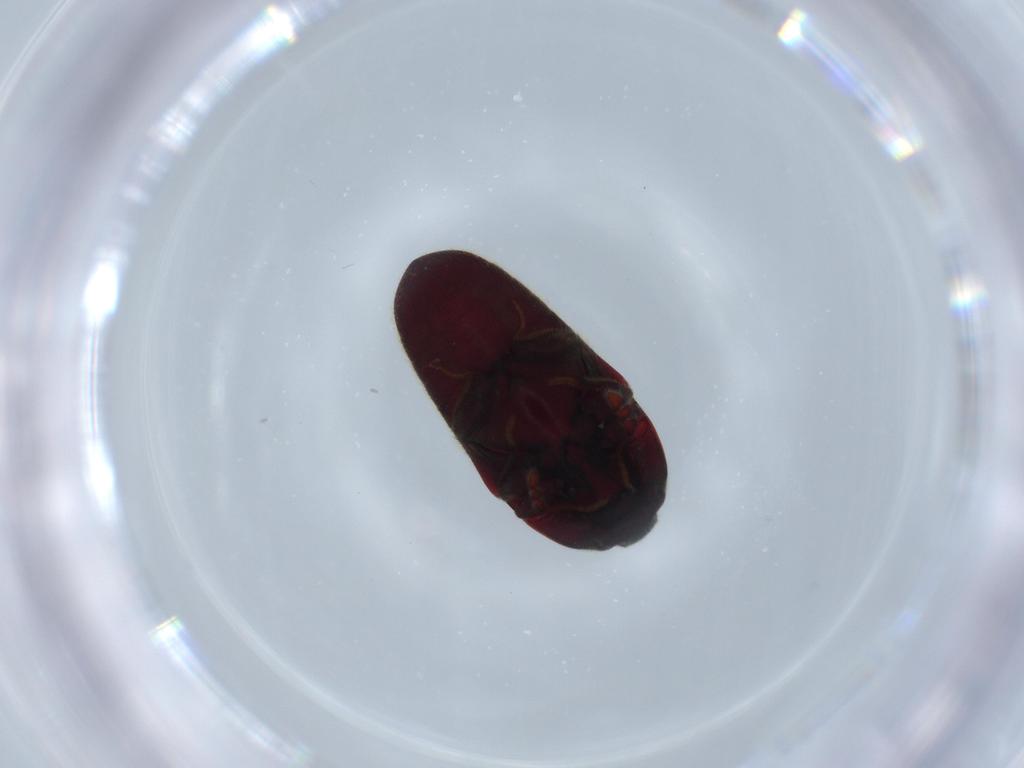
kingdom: Animalia
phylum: Arthropoda
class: Insecta
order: Coleoptera
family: Throscidae
